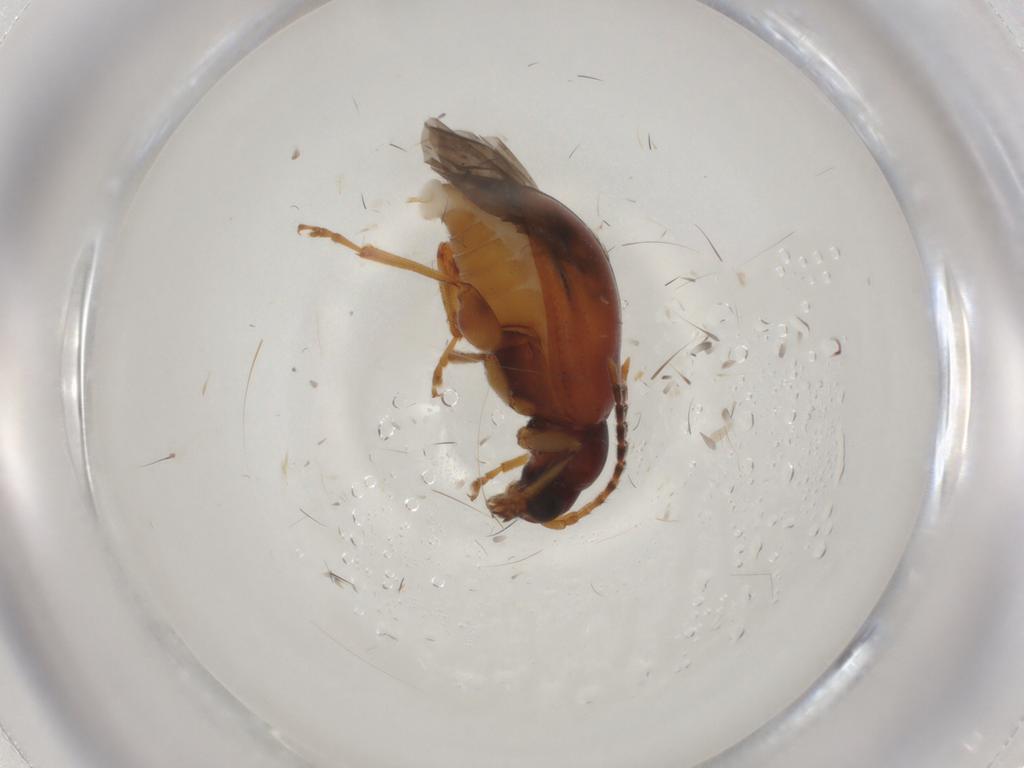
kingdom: Animalia
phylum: Arthropoda
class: Insecta
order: Coleoptera
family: Chrysomelidae
